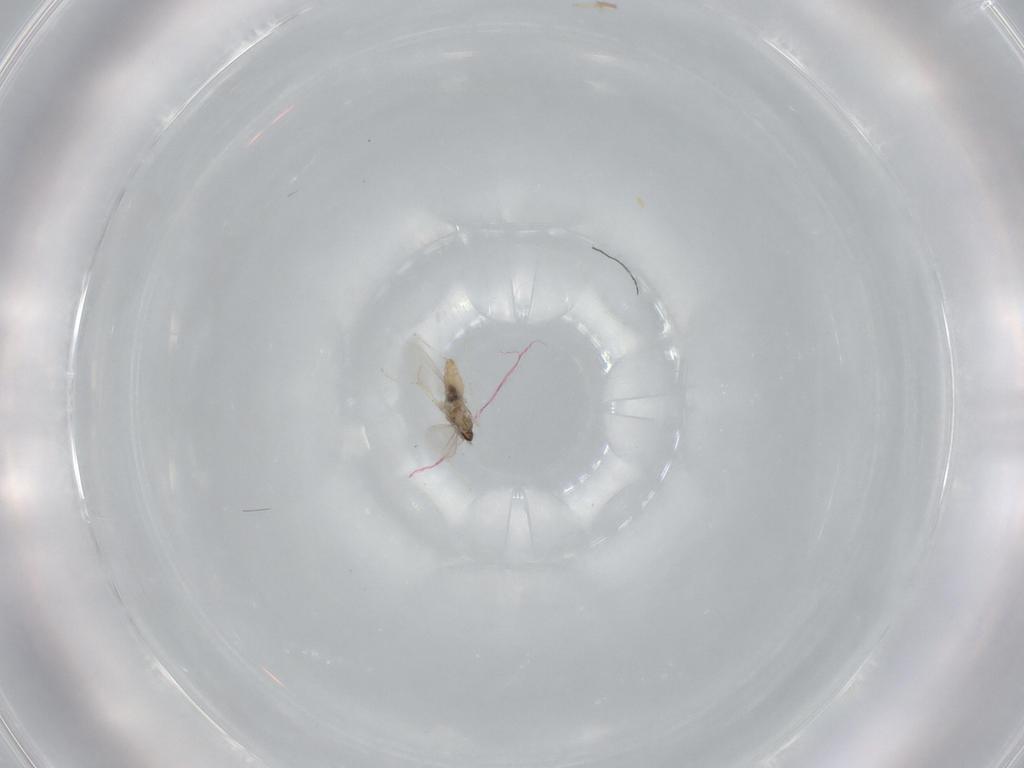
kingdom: Animalia
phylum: Arthropoda
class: Insecta
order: Diptera
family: Cecidomyiidae
